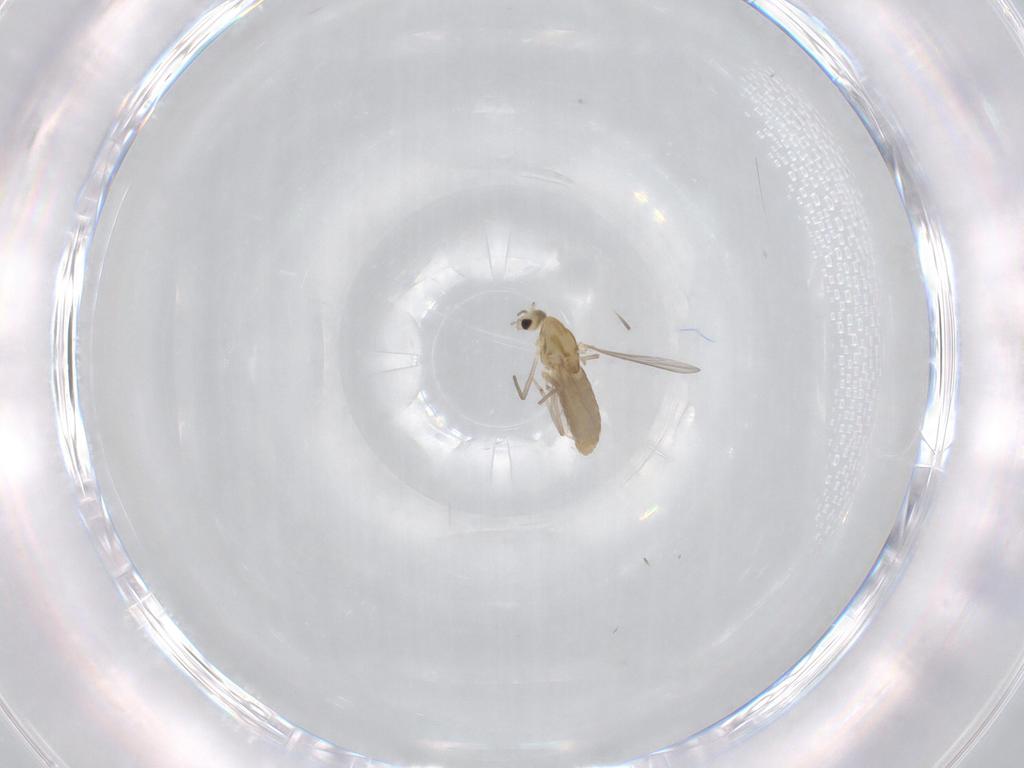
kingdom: Animalia
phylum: Arthropoda
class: Insecta
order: Diptera
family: Chironomidae
